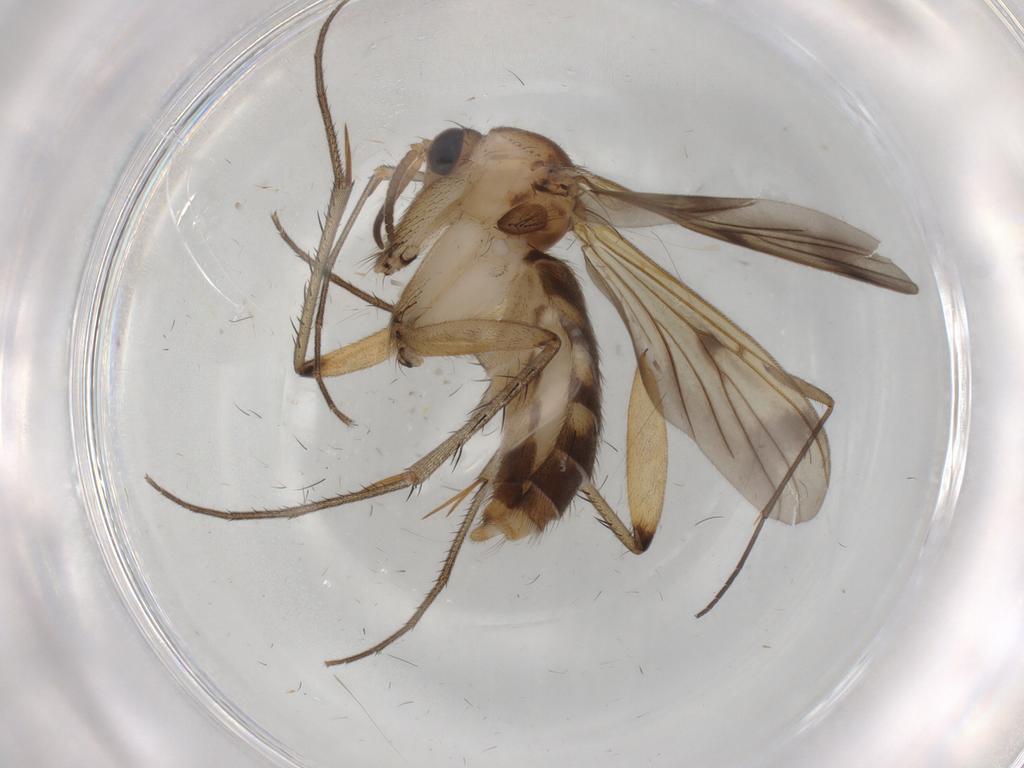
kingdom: Animalia
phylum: Arthropoda
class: Insecta
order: Diptera
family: Mycetophilidae
